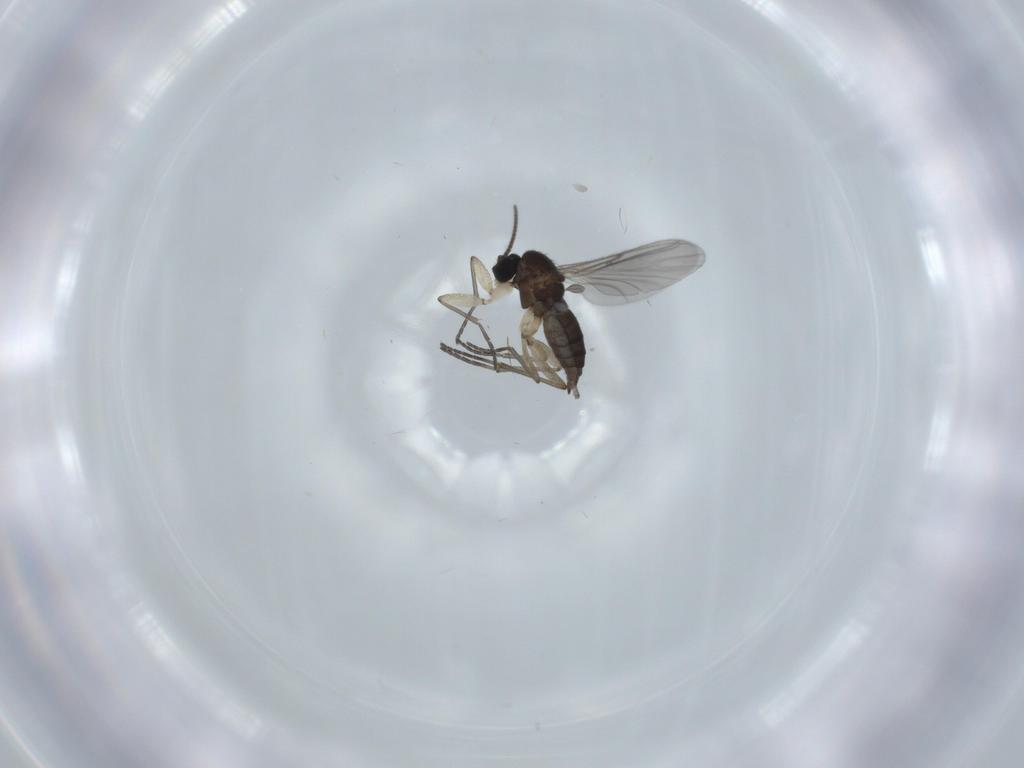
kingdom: Animalia
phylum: Arthropoda
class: Insecta
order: Diptera
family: Sciaridae
